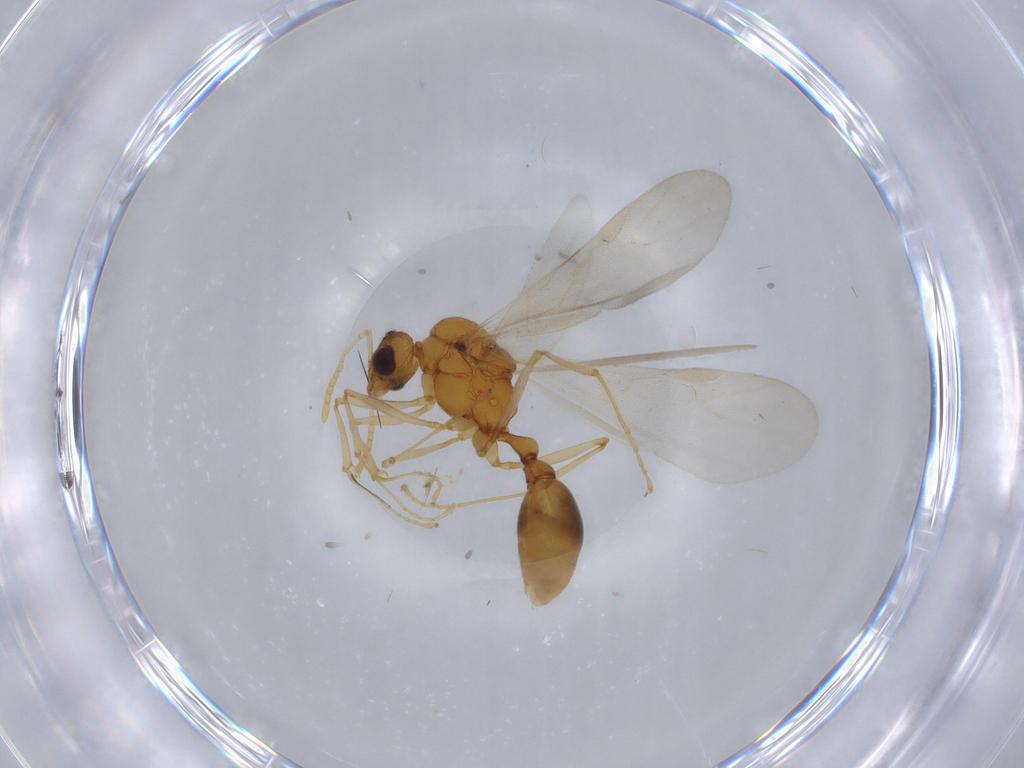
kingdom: Animalia
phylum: Arthropoda
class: Insecta
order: Hymenoptera
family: Formicidae
